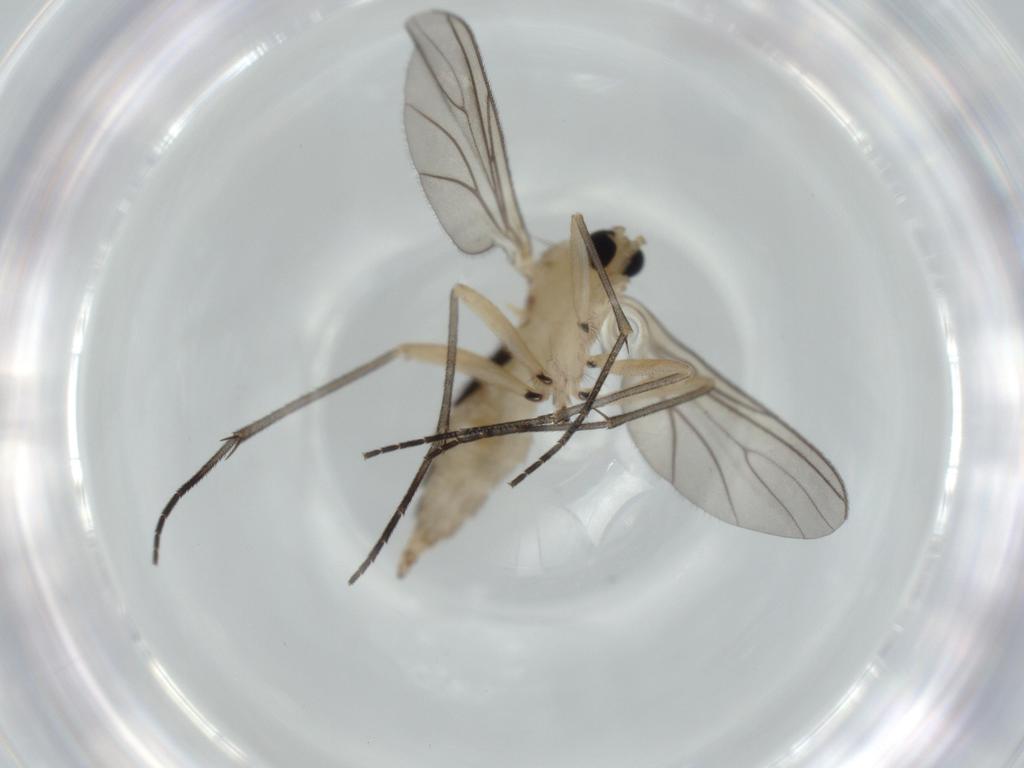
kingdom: Animalia
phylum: Arthropoda
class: Insecta
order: Diptera
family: Sciaridae
